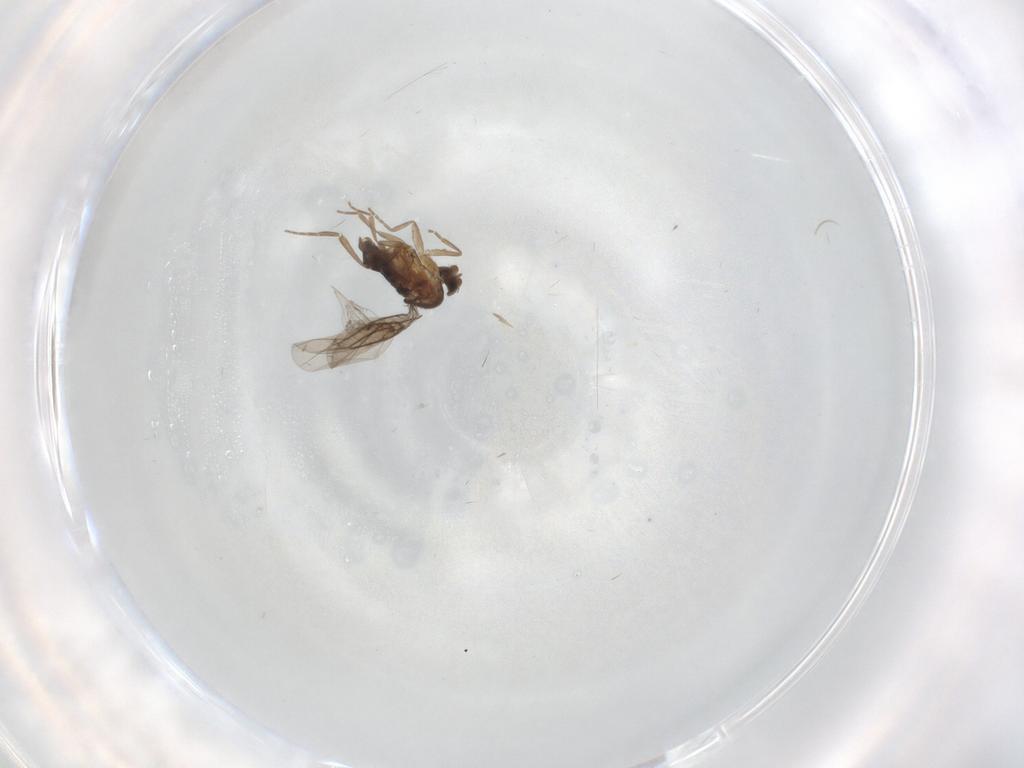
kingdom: Animalia
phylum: Arthropoda
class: Insecta
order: Diptera
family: Phoridae
